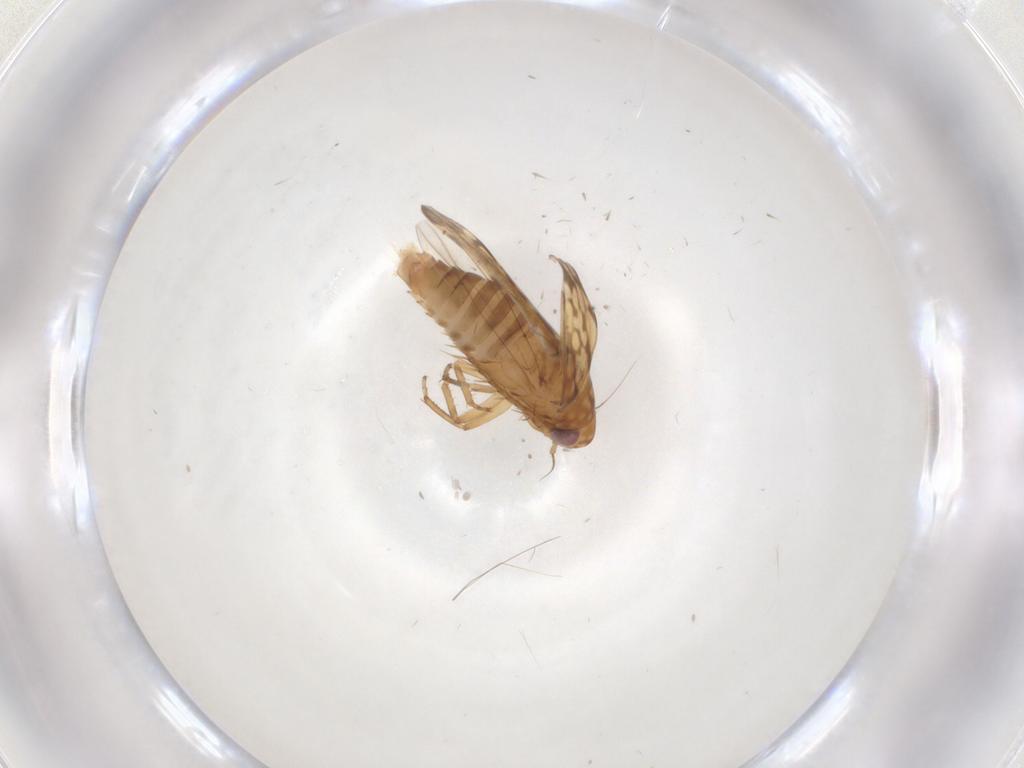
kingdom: Animalia
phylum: Arthropoda
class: Insecta
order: Hemiptera
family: Cicadellidae
